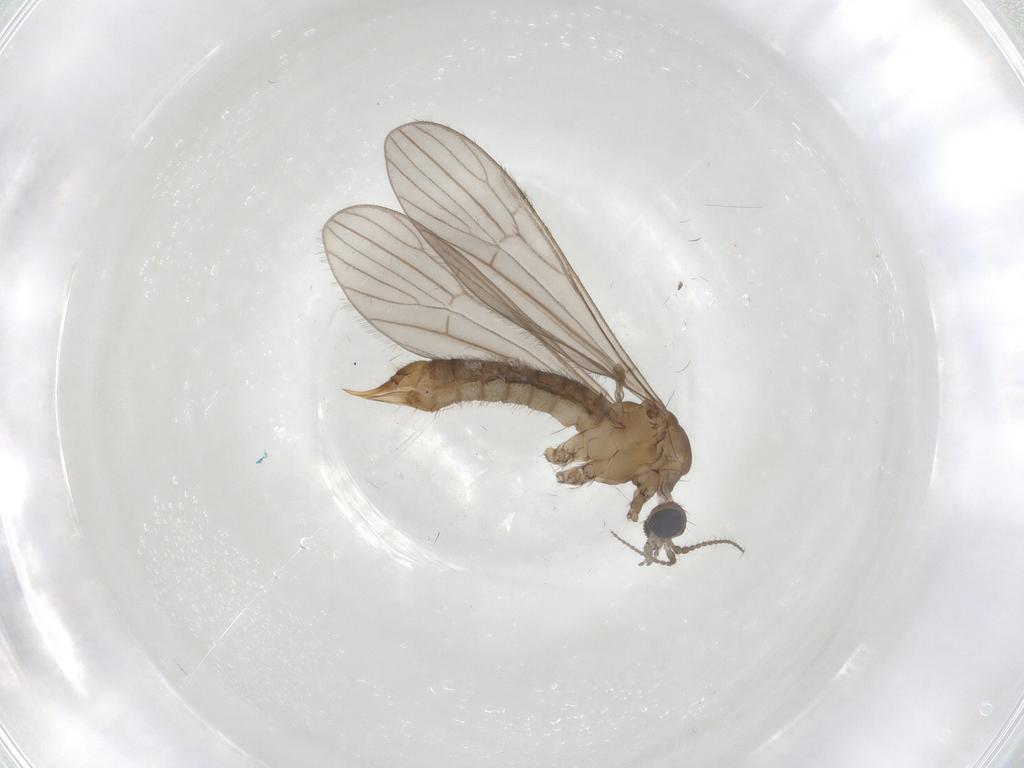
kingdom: Animalia
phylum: Arthropoda
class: Insecta
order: Diptera
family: Limoniidae
